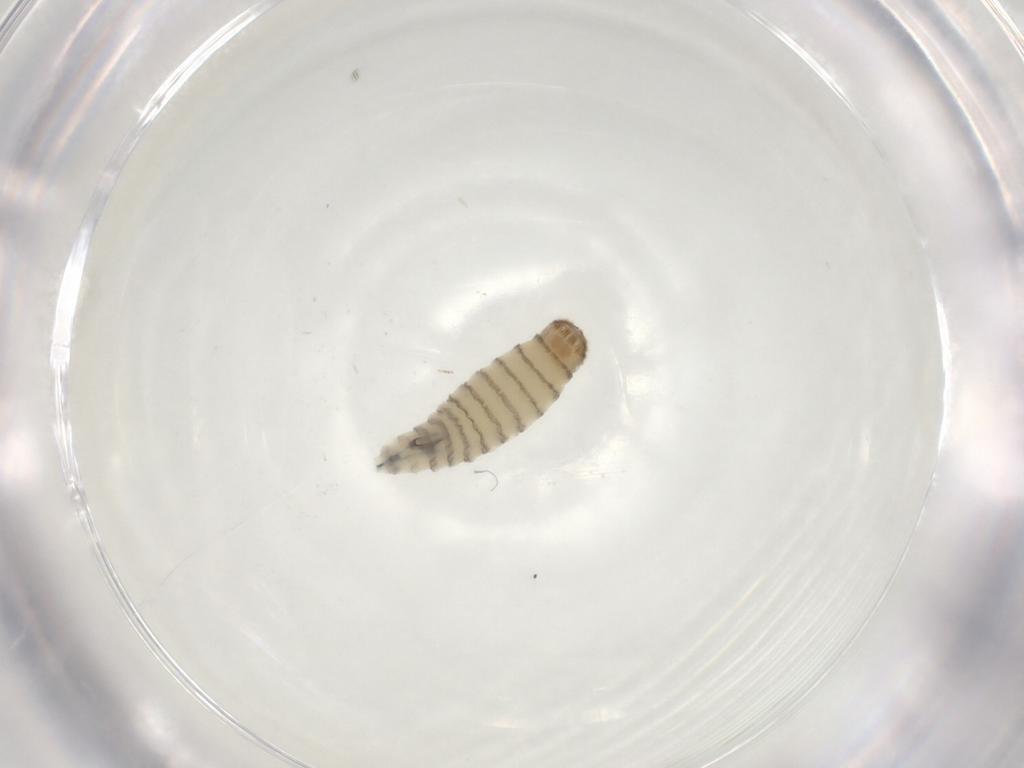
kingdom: Animalia
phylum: Arthropoda
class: Insecta
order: Diptera
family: Sarcophagidae
